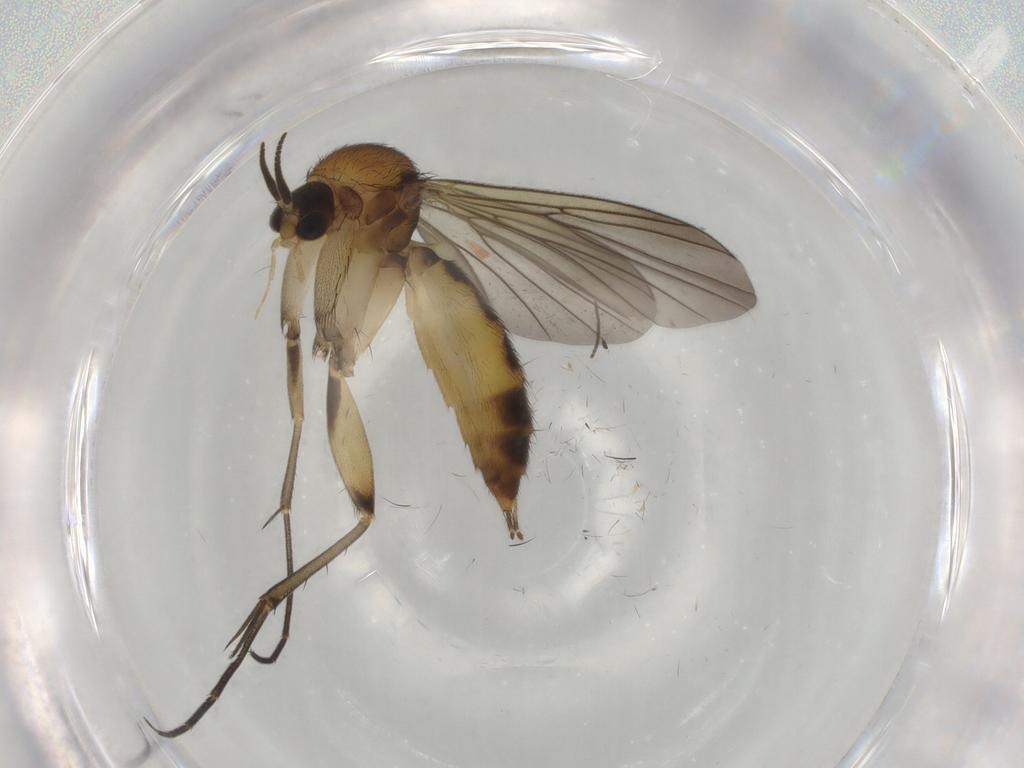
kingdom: Animalia
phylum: Arthropoda
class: Insecta
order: Diptera
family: Sciaridae
